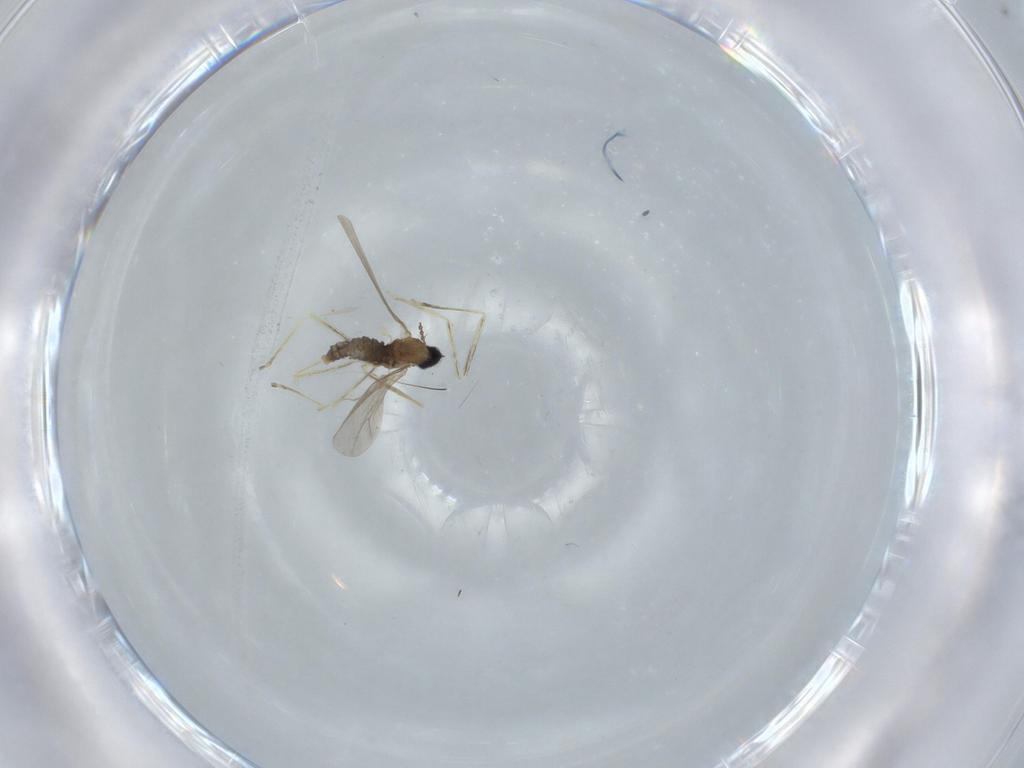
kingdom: Animalia
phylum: Arthropoda
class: Insecta
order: Diptera
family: Cecidomyiidae
